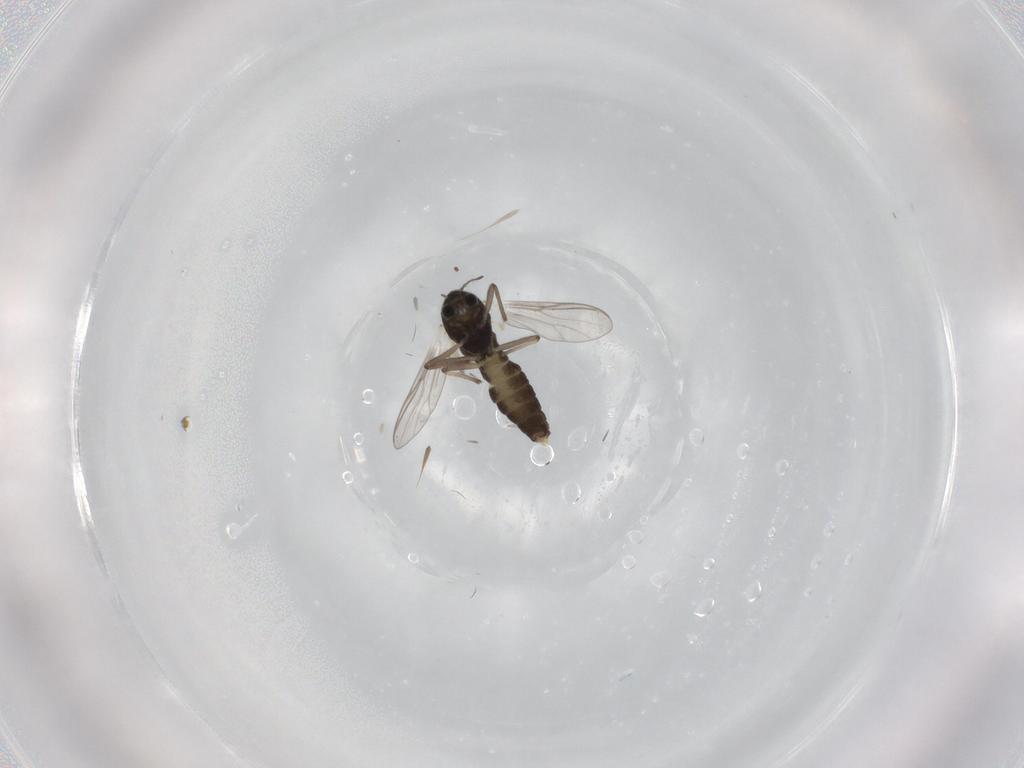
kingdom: Animalia
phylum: Arthropoda
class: Insecta
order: Diptera
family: Chironomidae
